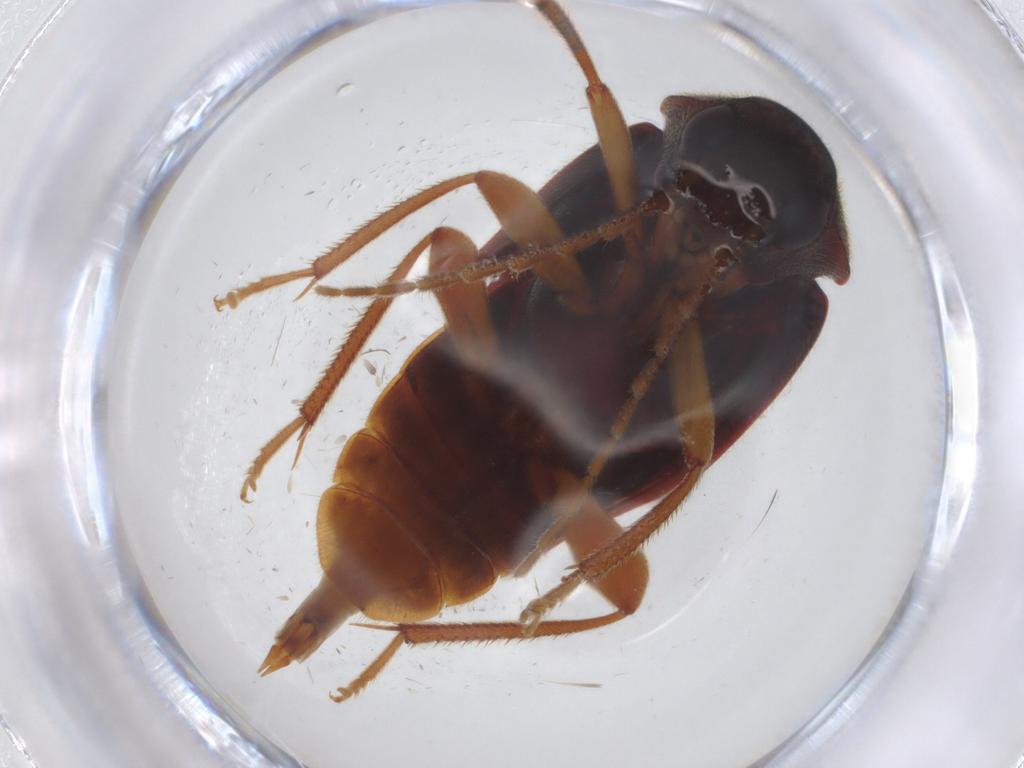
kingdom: Animalia
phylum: Arthropoda
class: Insecta
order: Coleoptera
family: Ptilodactylidae
